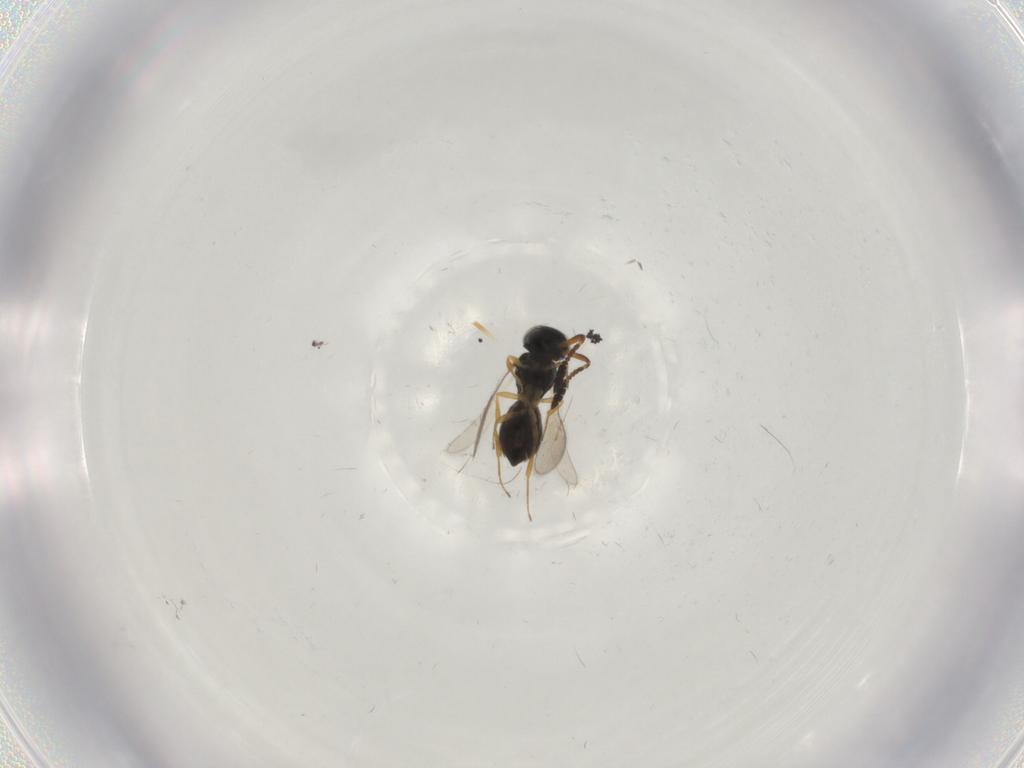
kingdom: Animalia
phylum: Arthropoda
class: Insecta
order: Hymenoptera
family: Scelionidae
